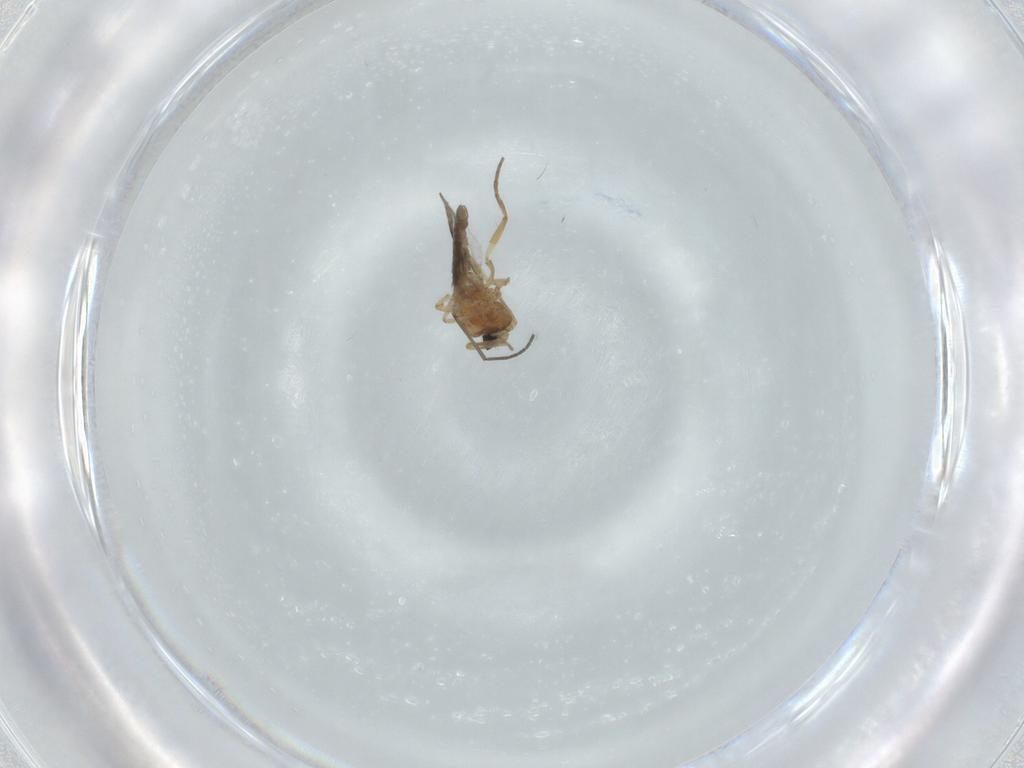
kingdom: Animalia
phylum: Arthropoda
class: Insecta
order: Diptera
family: Ceratopogonidae
